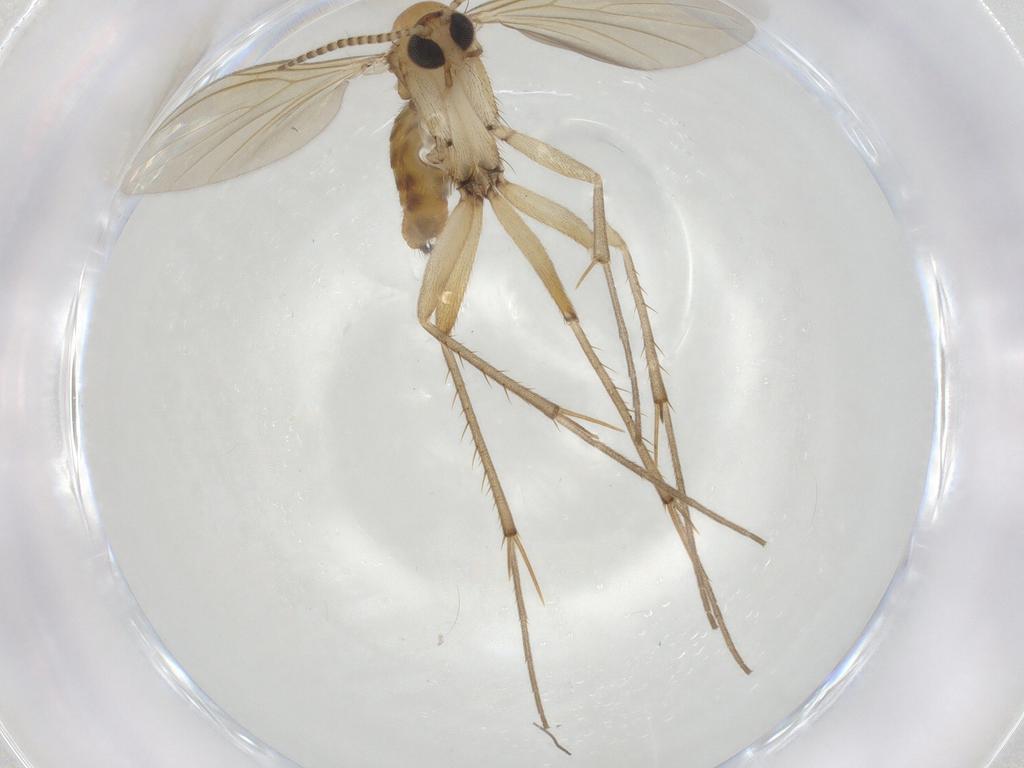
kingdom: Animalia
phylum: Arthropoda
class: Insecta
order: Diptera
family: Mycetophilidae
